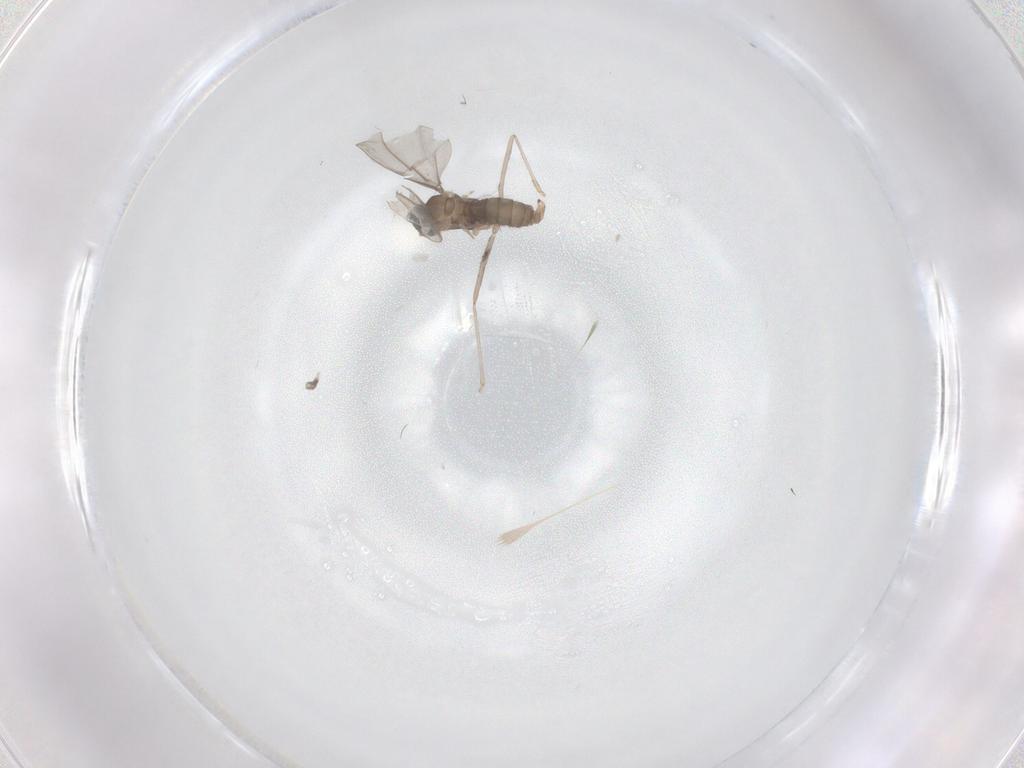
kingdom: Animalia
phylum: Arthropoda
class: Insecta
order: Diptera
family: Cecidomyiidae
